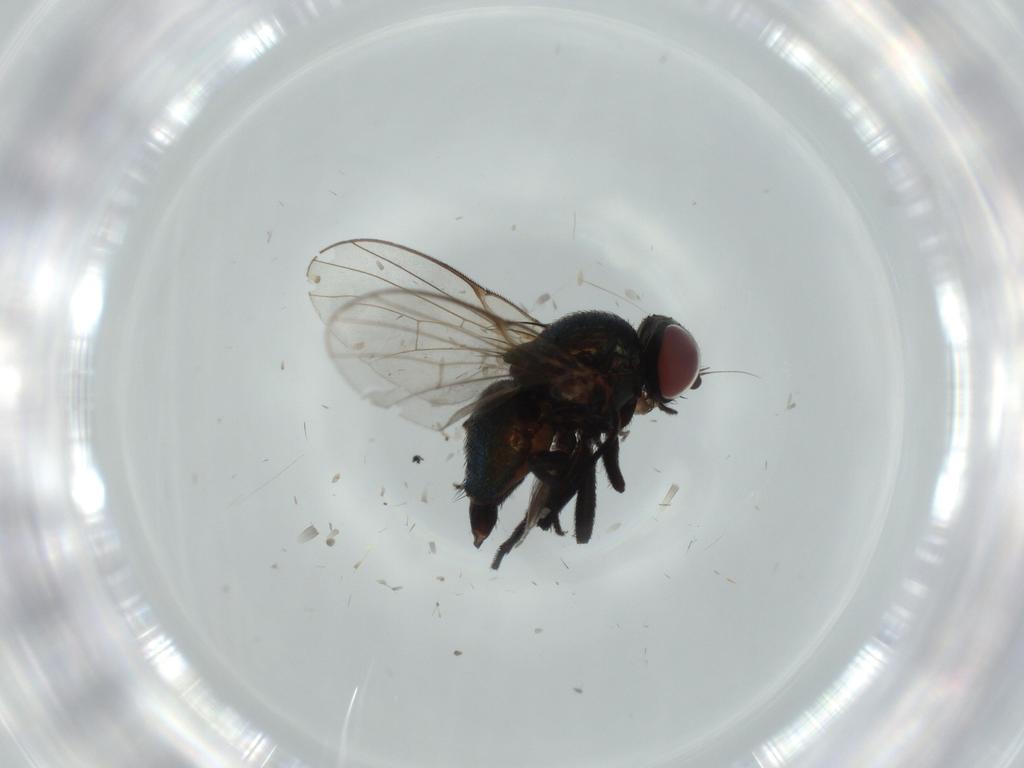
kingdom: Animalia
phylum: Arthropoda
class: Insecta
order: Diptera
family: Agromyzidae
